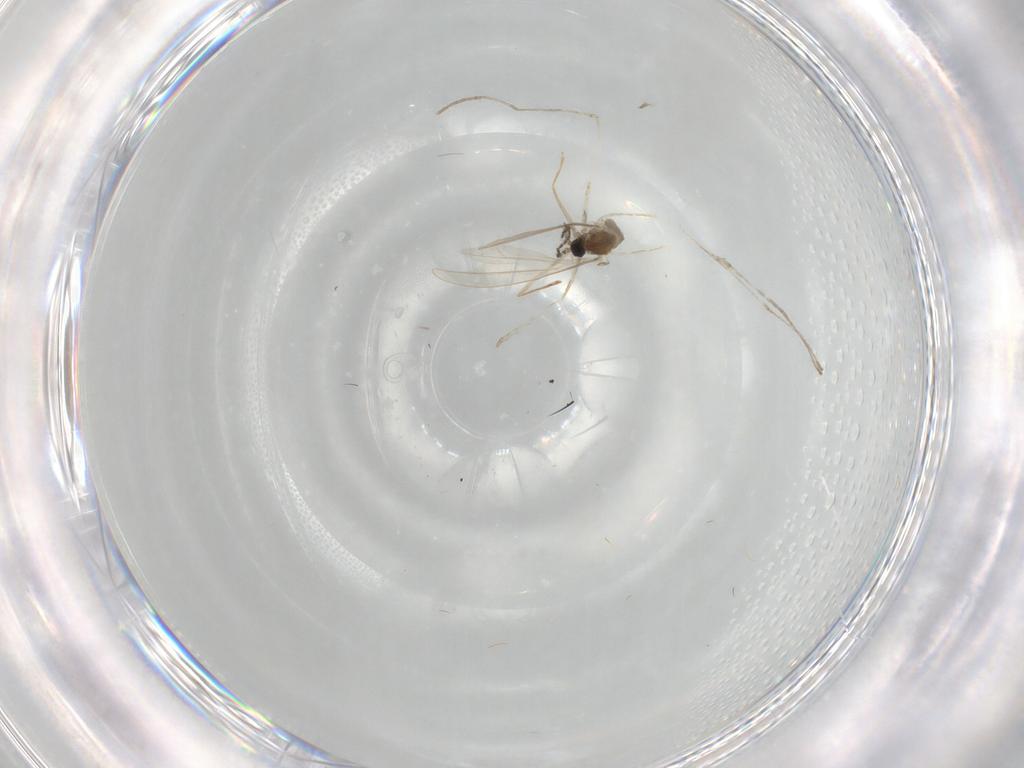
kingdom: Animalia
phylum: Arthropoda
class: Insecta
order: Diptera
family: Cecidomyiidae
